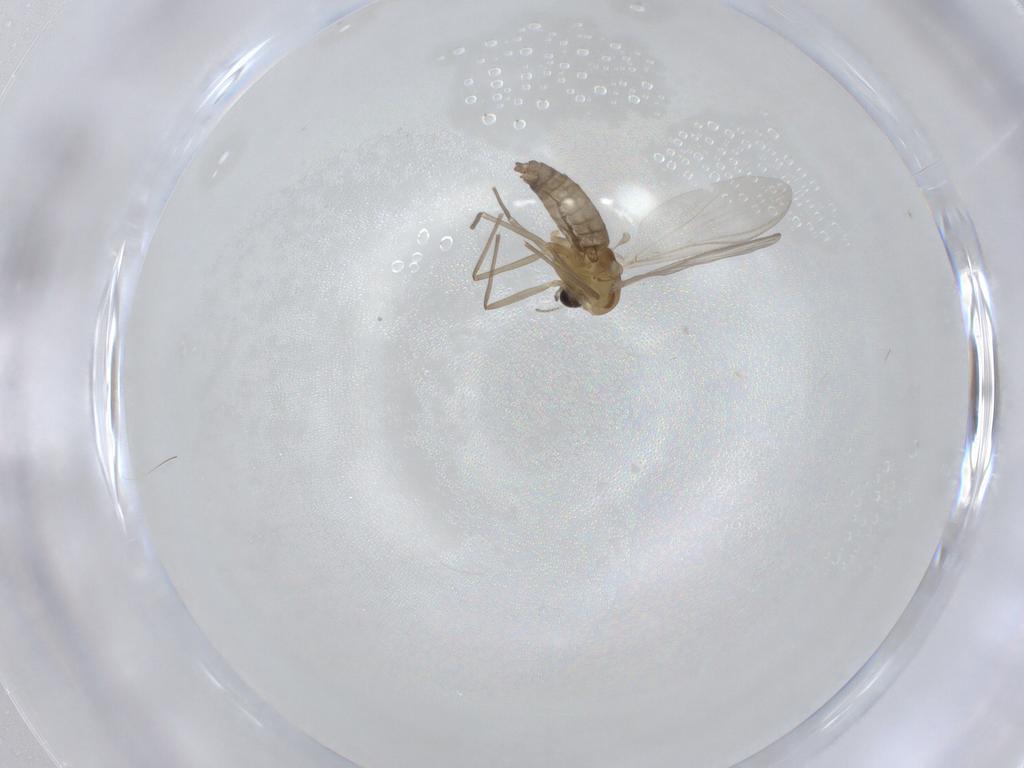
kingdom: Animalia
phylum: Arthropoda
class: Insecta
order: Diptera
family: Chironomidae
